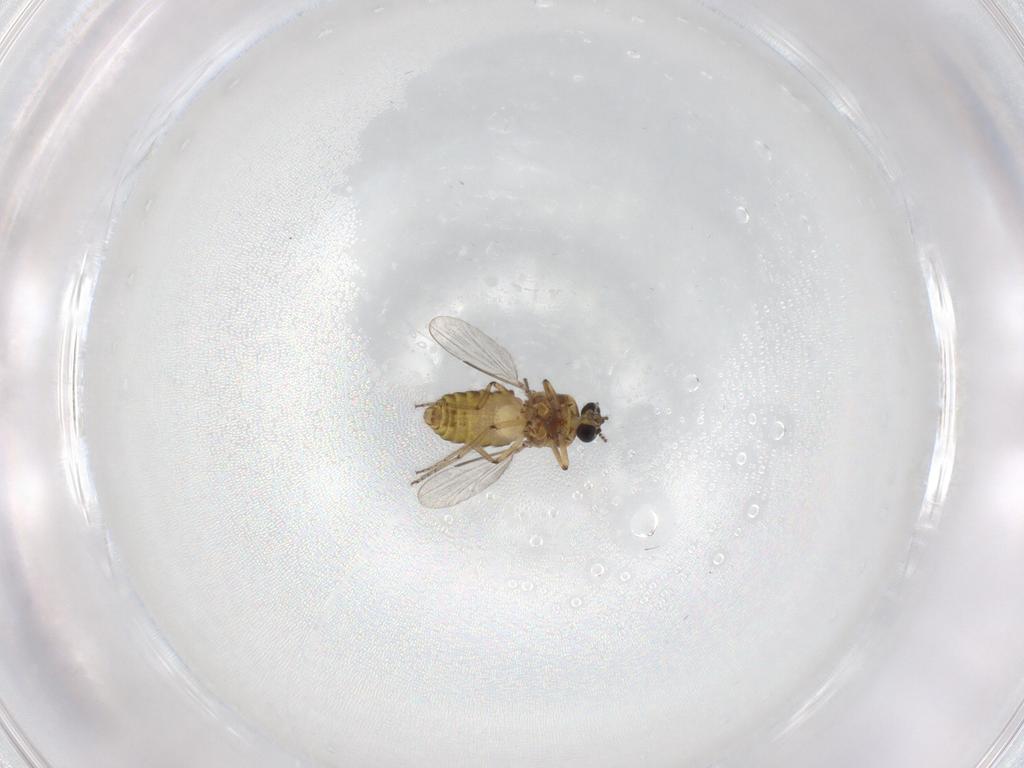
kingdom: Animalia
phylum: Arthropoda
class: Insecta
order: Diptera
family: Ceratopogonidae
